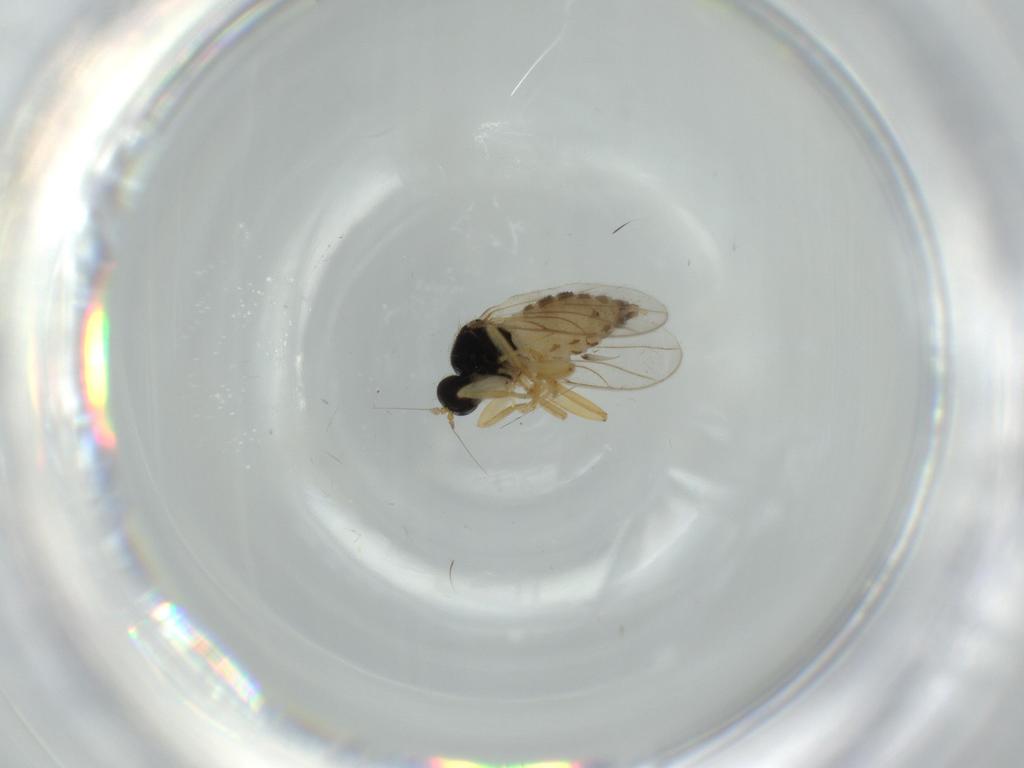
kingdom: Animalia
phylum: Arthropoda
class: Insecta
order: Diptera
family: Hybotidae
